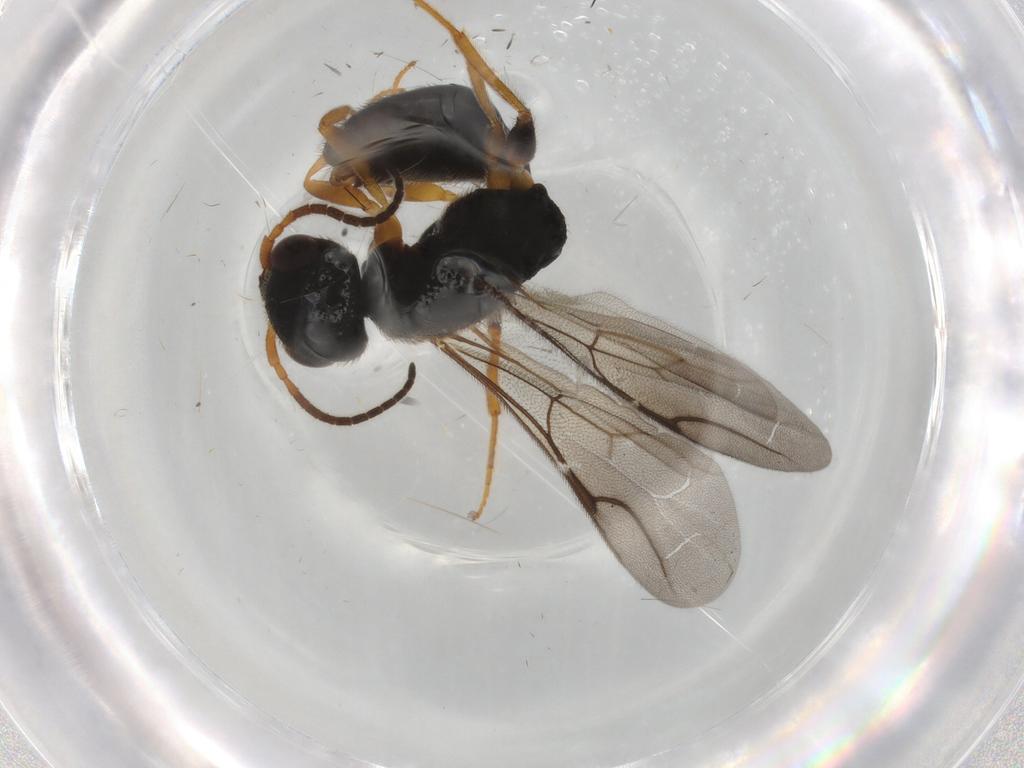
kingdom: Animalia
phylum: Arthropoda
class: Insecta
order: Hymenoptera
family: Bethylidae
